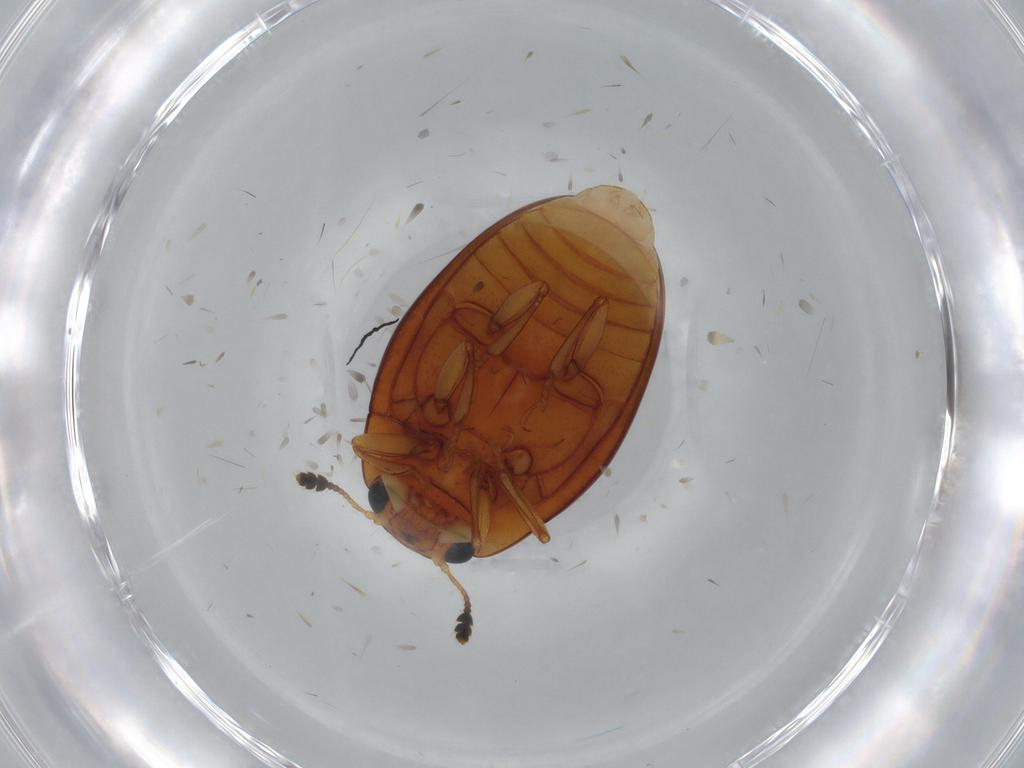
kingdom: Animalia
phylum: Arthropoda
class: Insecta
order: Coleoptera
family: Erotylidae
